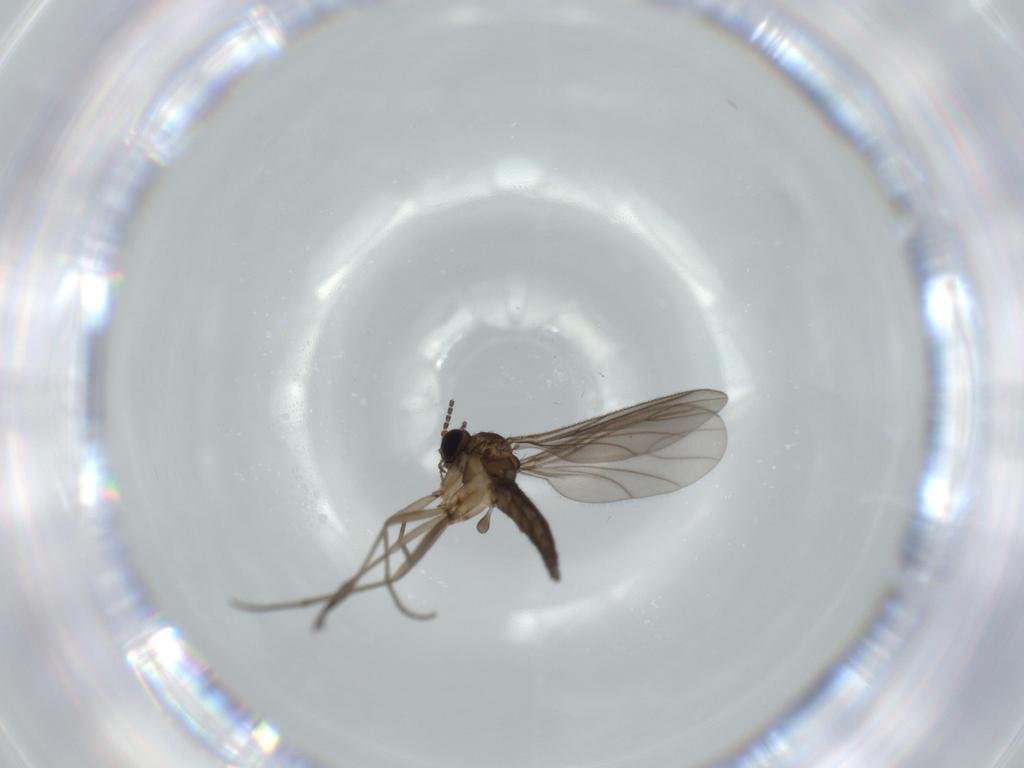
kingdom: Animalia
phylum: Arthropoda
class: Insecta
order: Diptera
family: Sciaridae
